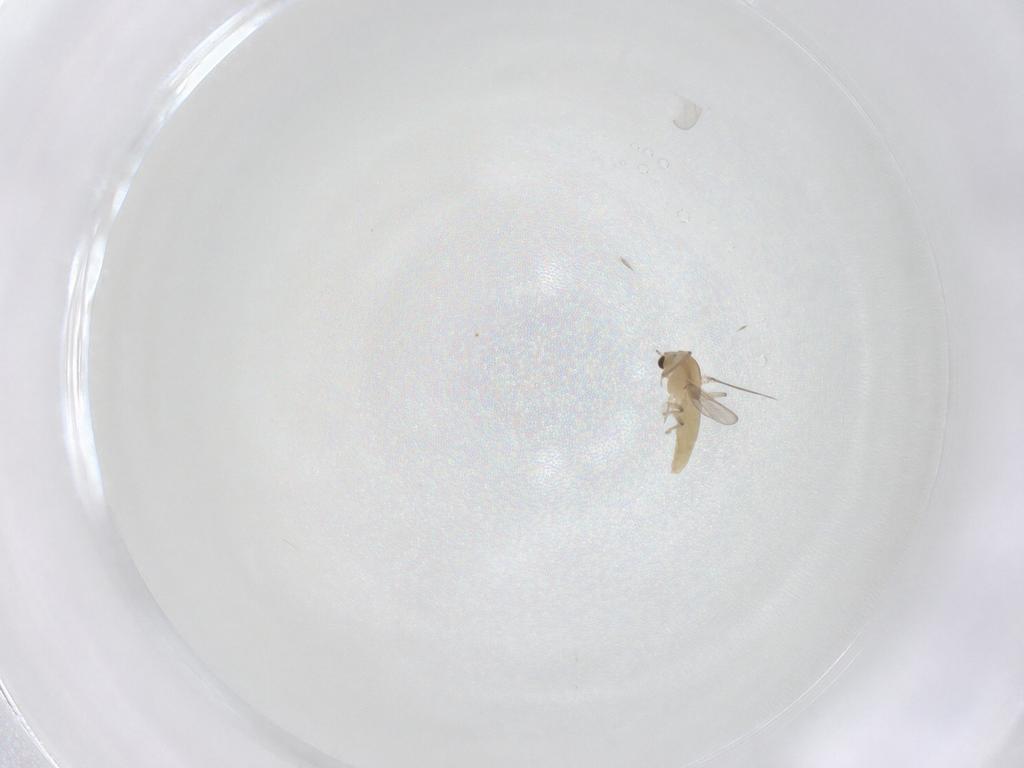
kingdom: Animalia
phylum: Arthropoda
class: Insecta
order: Diptera
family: Chironomidae
